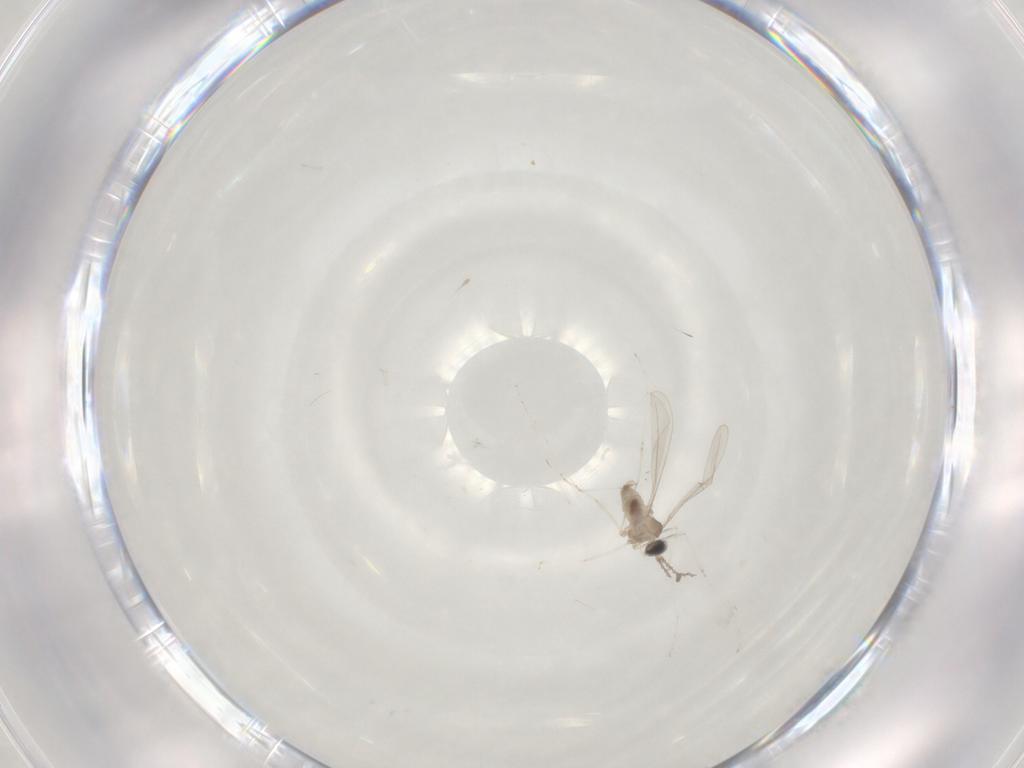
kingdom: Animalia
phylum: Arthropoda
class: Insecta
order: Diptera
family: Cecidomyiidae
